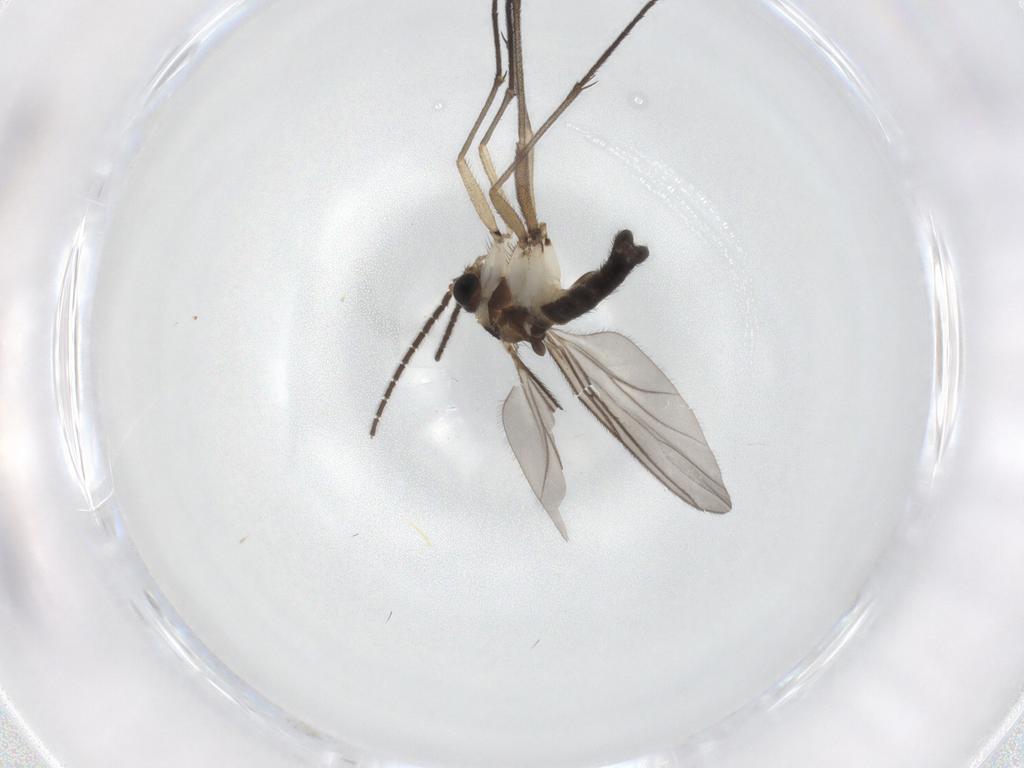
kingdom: Animalia
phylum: Arthropoda
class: Insecta
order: Diptera
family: Sciaridae
